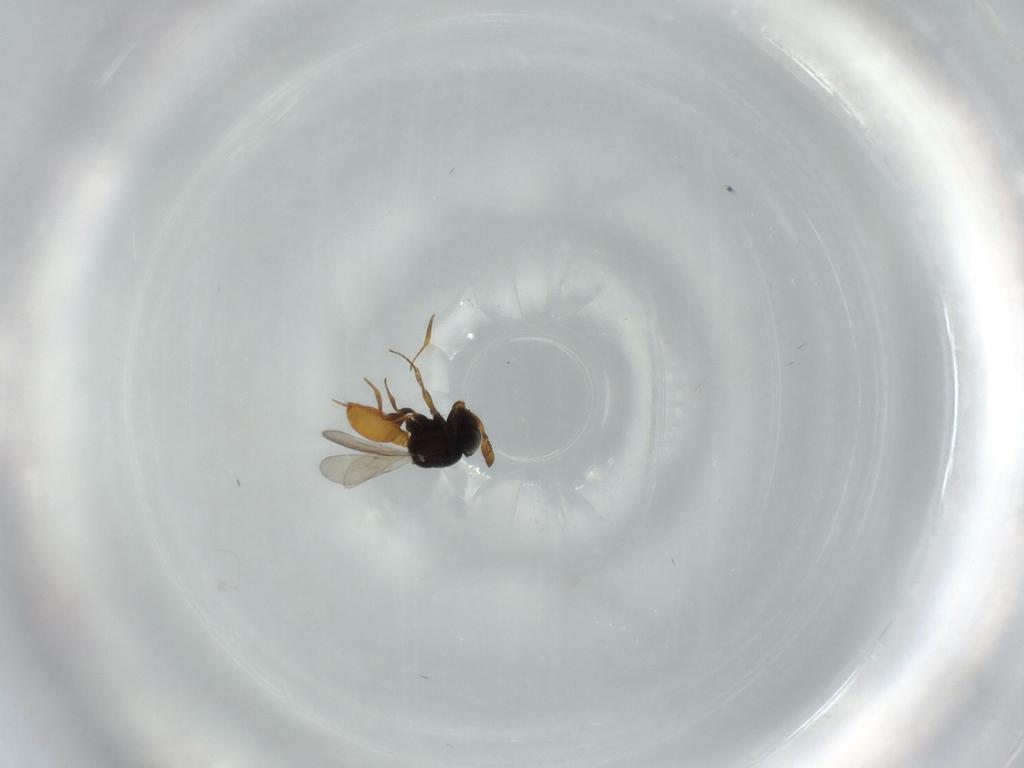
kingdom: Animalia
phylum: Arthropoda
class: Insecta
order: Hymenoptera
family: Scelionidae
